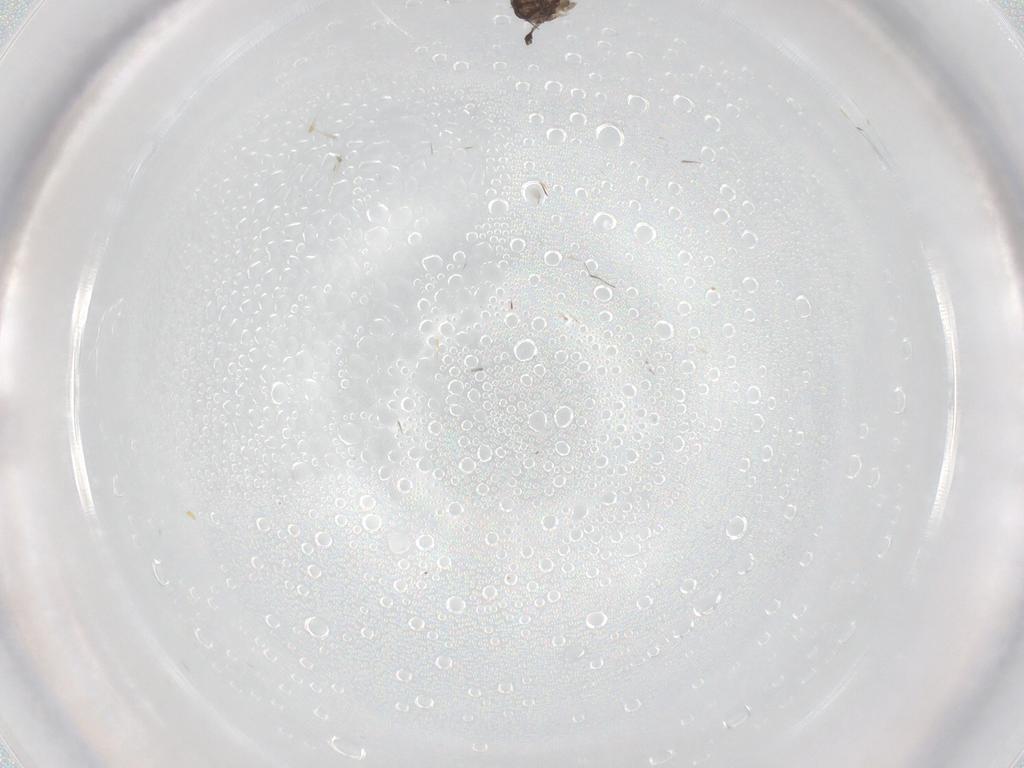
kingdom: Animalia
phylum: Arthropoda
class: Insecta
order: Diptera
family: Sciaridae
